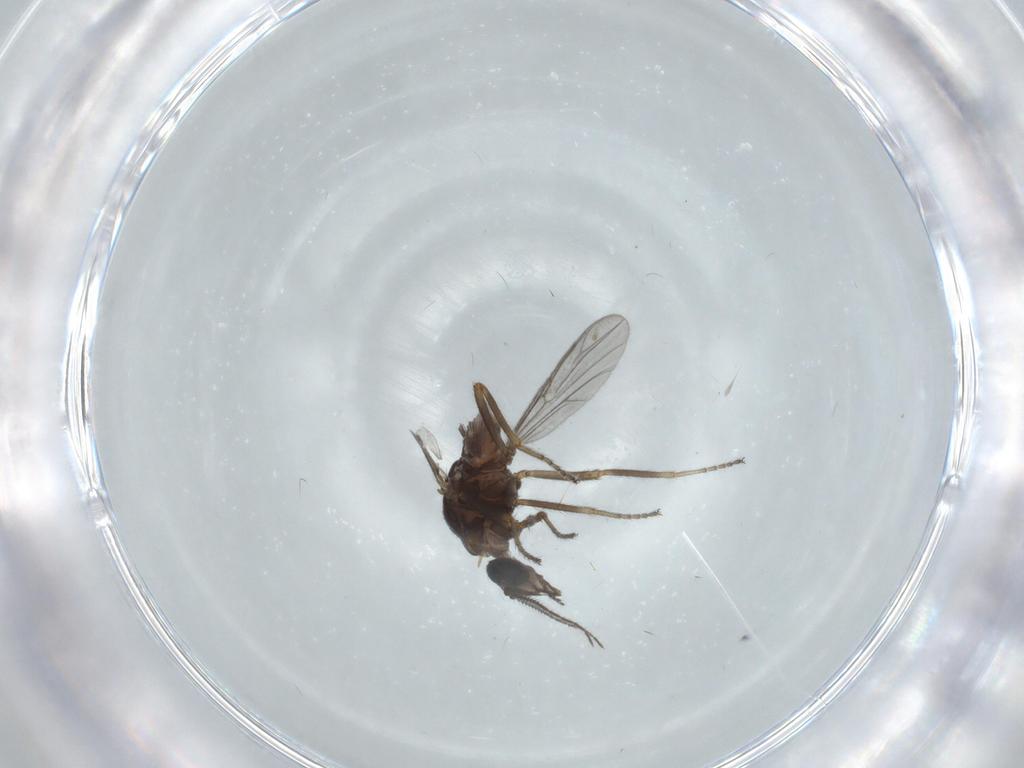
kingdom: Animalia
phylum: Arthropoda
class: Insecta
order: Diptera
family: Ceratopogonidae
